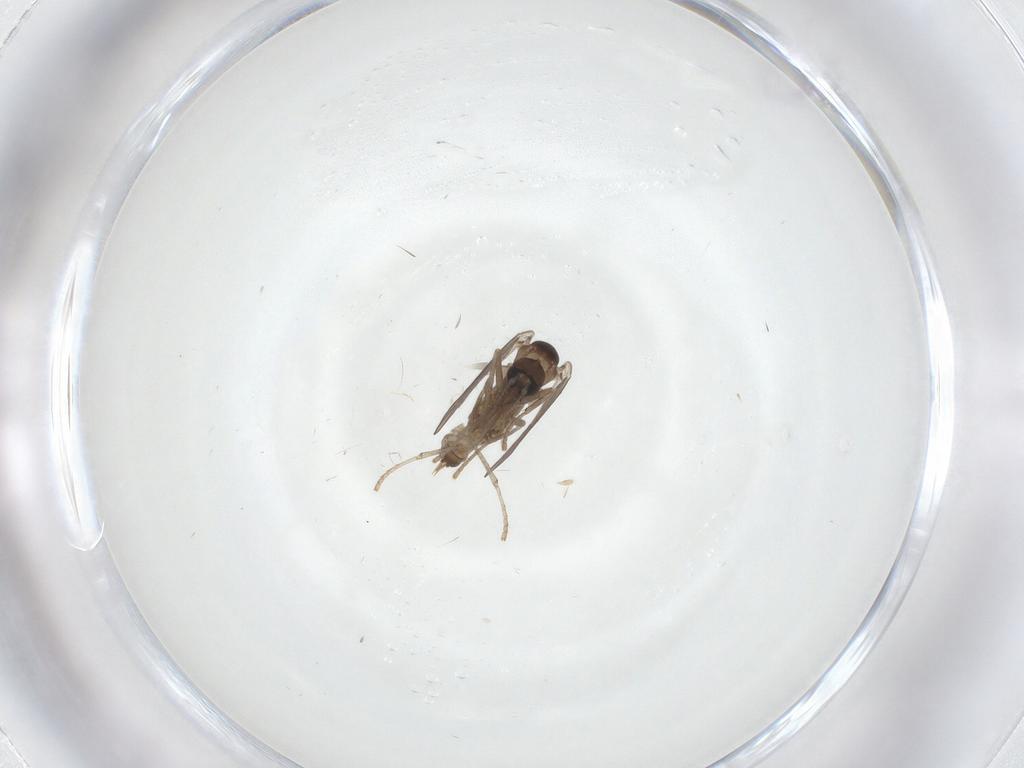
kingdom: Animalia
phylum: Arthropoda
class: Insecta
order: Diptera
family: Psychodidae
